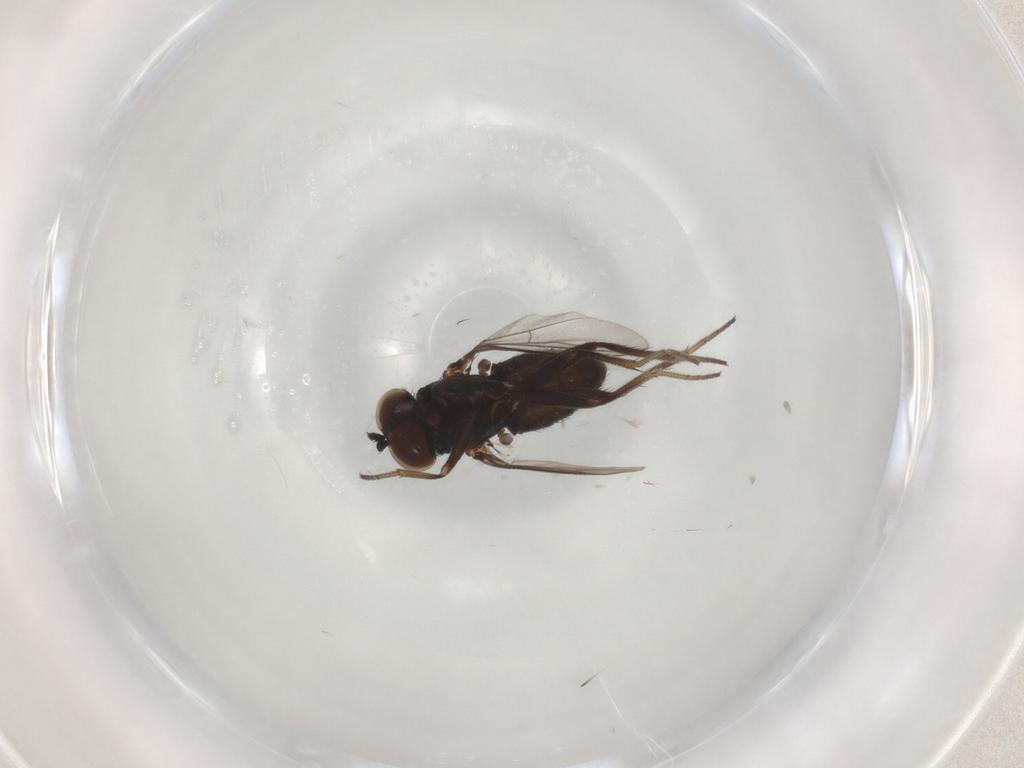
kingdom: Animalia
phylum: Arthropoda
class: Insecta
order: Diptera
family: Dolichopodidae
